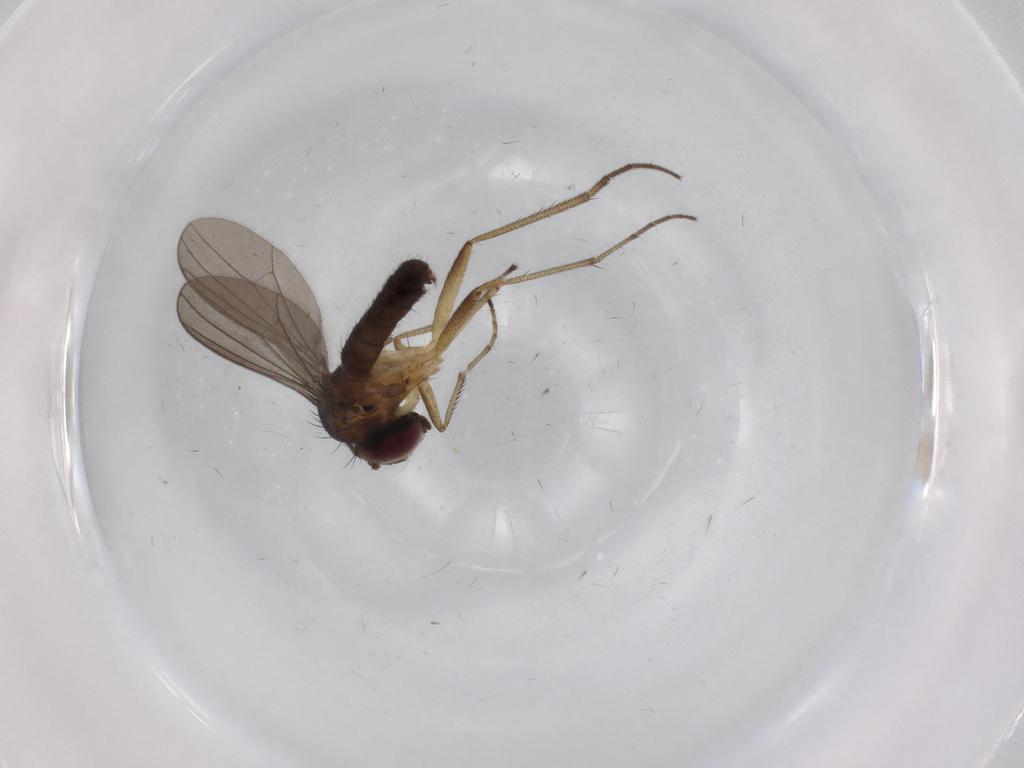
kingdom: Animalia
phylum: Arthropoda
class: Insecta
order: Diptera
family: Dolichopodidae
